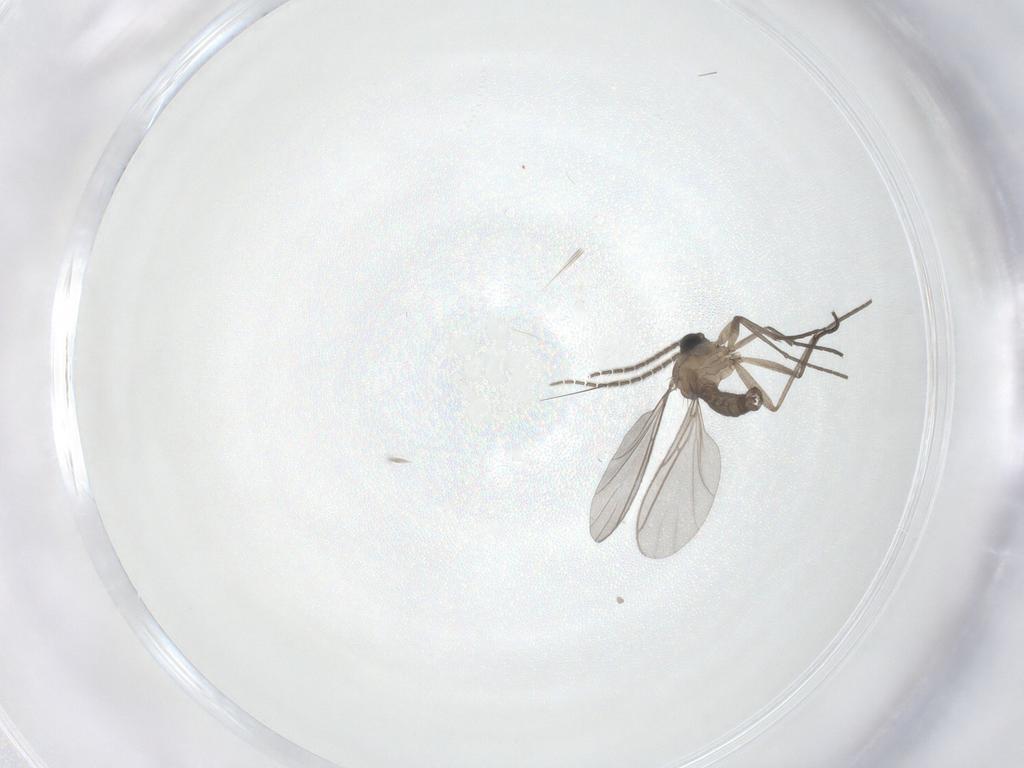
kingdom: Animalia
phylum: Arthropoda
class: Insecta
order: Diptera
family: Sciaridae
